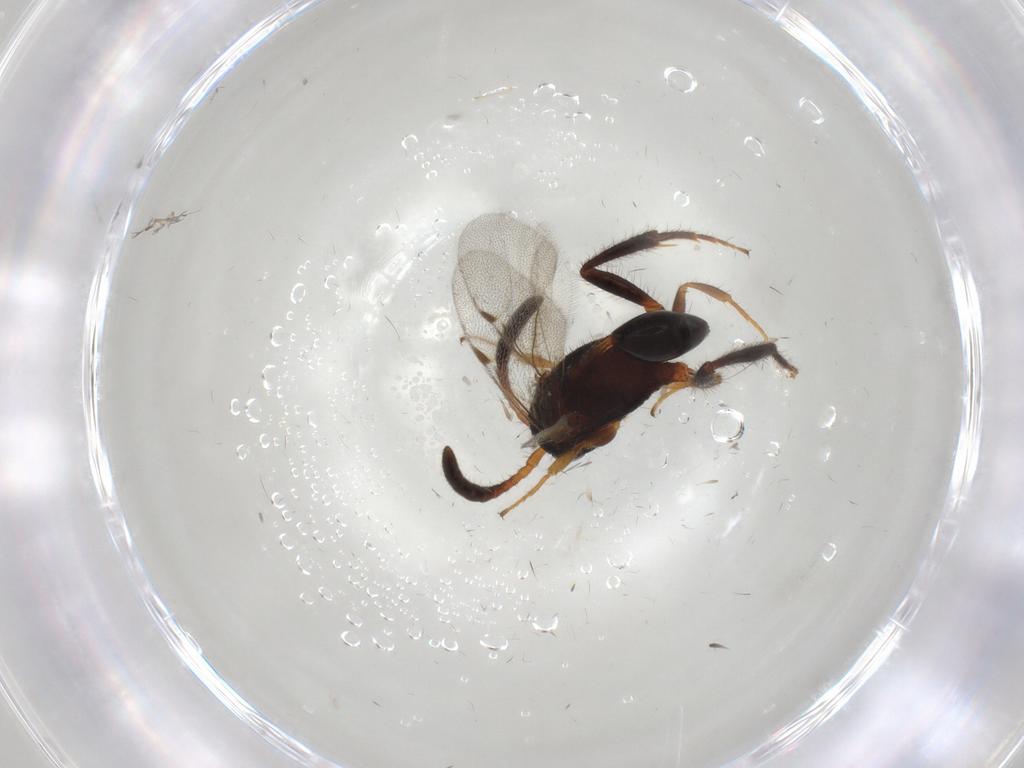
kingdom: Animalia
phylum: Arthropoda
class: Insecta
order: Hymenoptera
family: Evaniidae
